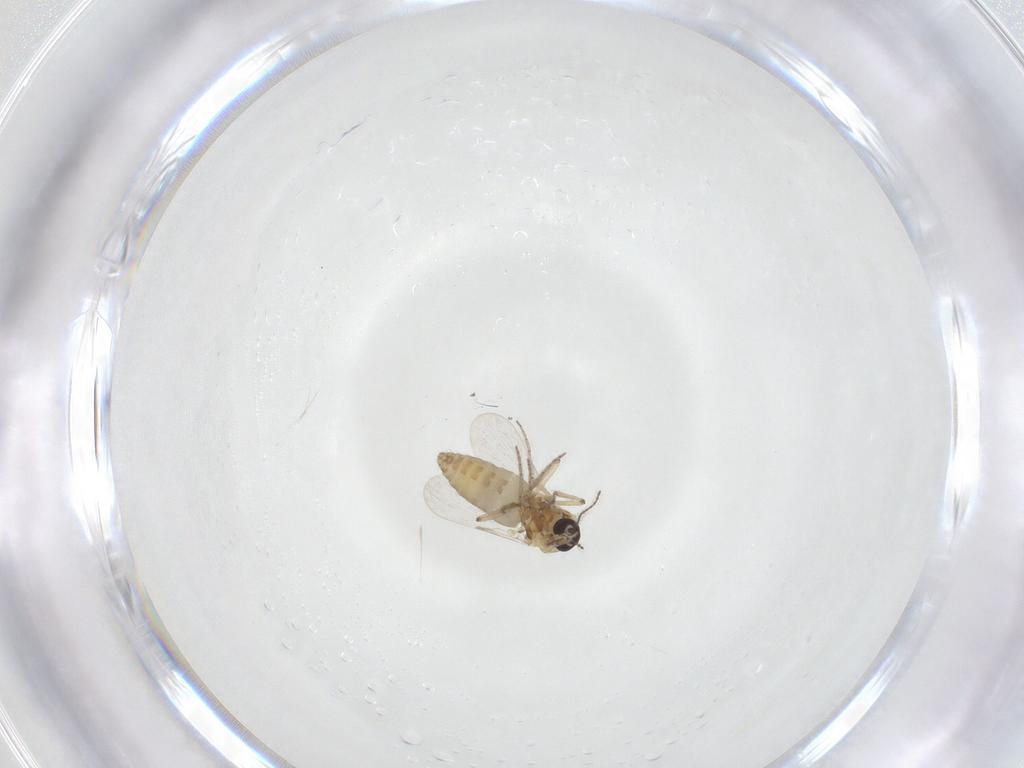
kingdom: Animalia
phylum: Arthropoda
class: Insecta
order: Diptera
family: Ceratopogonidae
